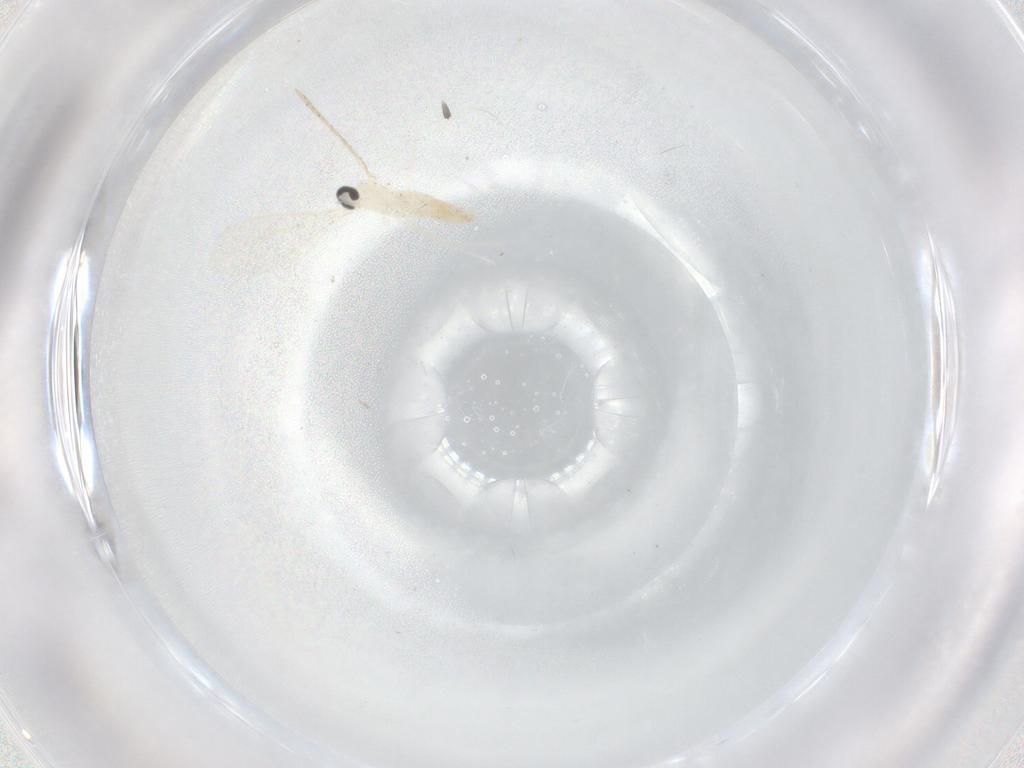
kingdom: Animalia
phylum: Arthropoda
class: Insecta
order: Diptera
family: Cecidomyiidae
